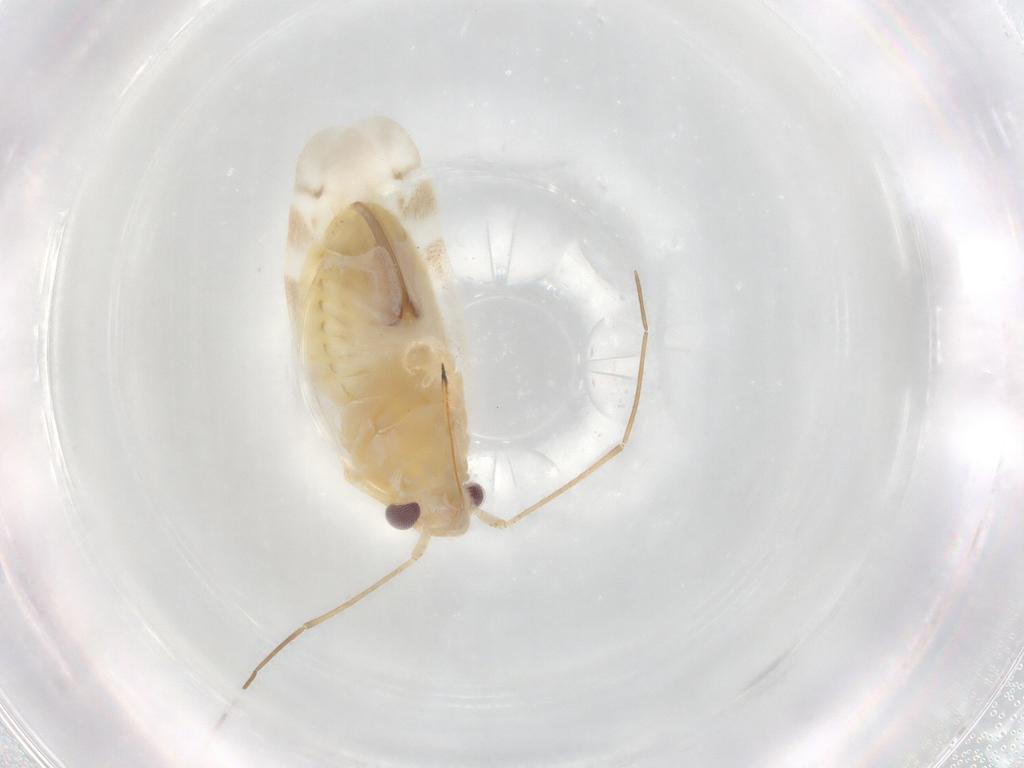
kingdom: Animalia
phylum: Arthropoda
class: Insecta
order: Hemiptera
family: Miridae
